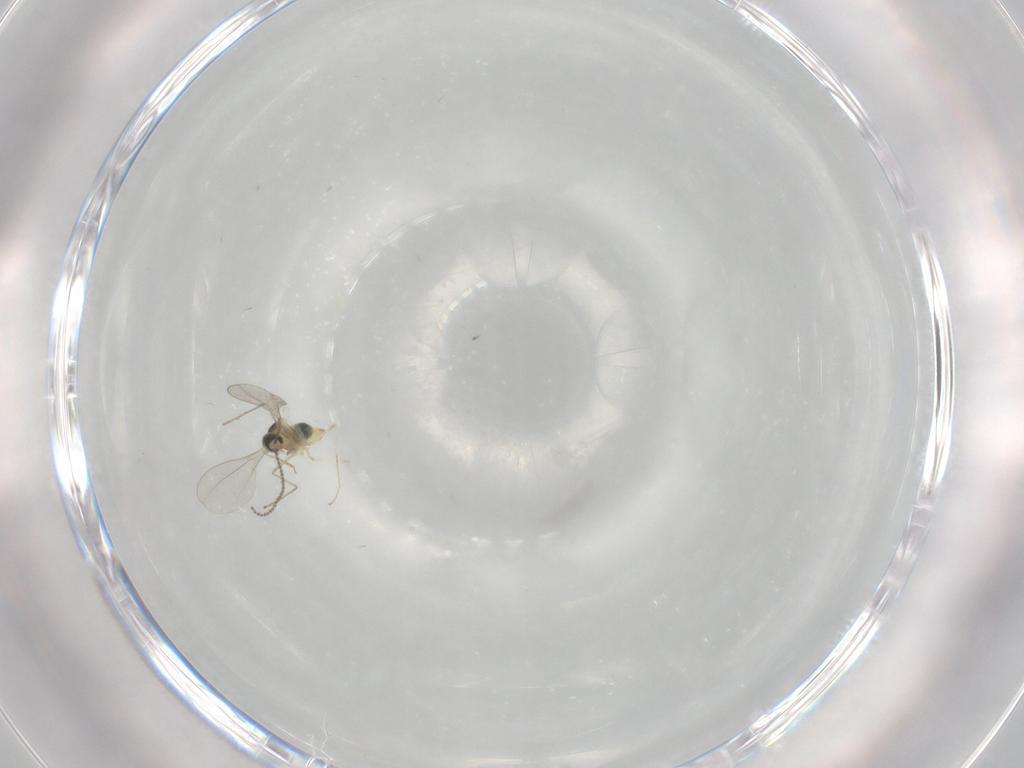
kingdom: Animalia
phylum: Arthropoda
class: Insecta
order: Diptera
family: Cecidomyiidae
